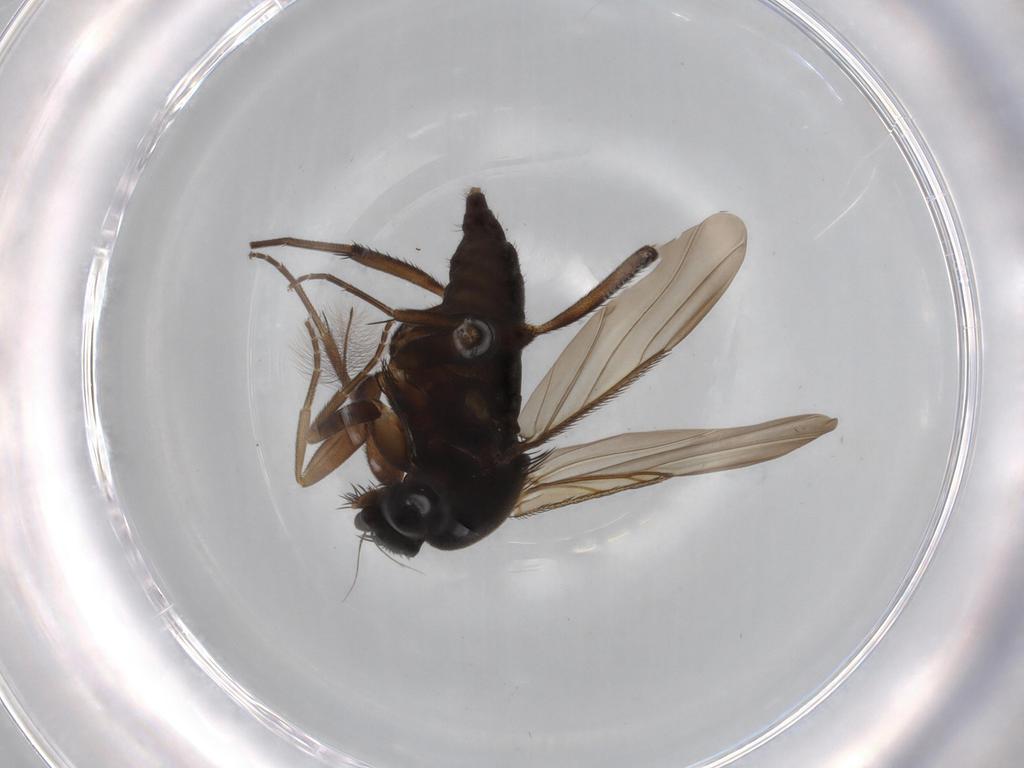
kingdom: Animalia
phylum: Arthropoda
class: Insecta
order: Diptera
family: Phoridae
